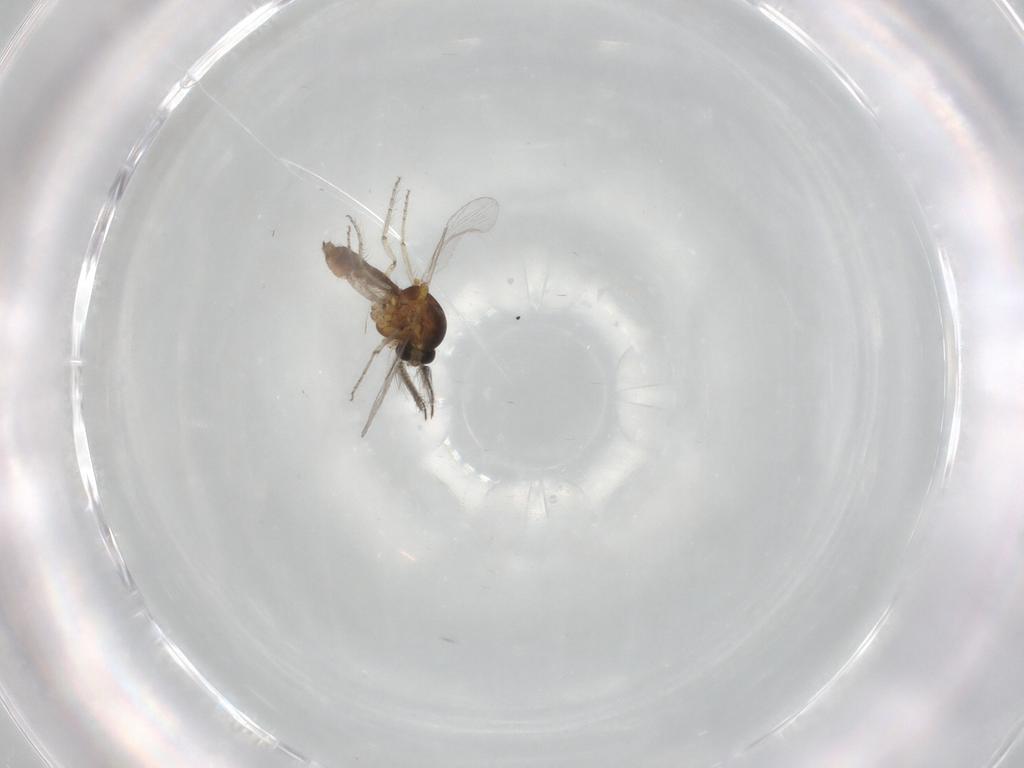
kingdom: Animalia
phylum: Arthropoda
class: Insecta
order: Diptera
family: Ceratopogonidae
